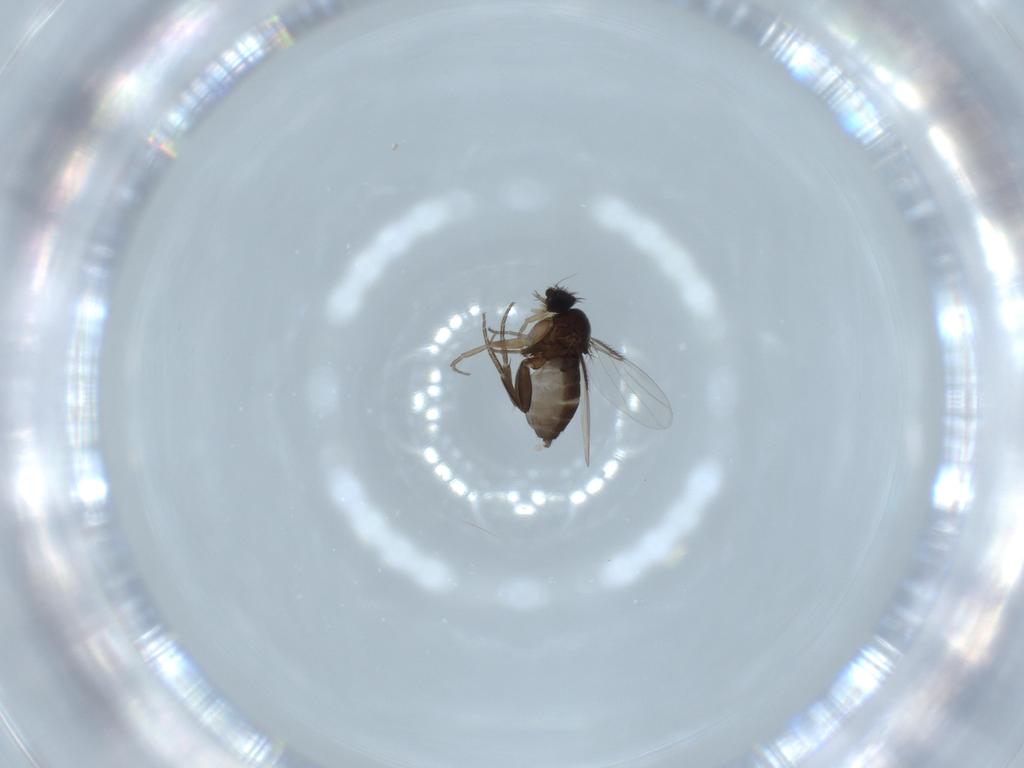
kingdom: Animalia
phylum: Arthropoda
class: Insecta
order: Diptera
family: Phoridae
